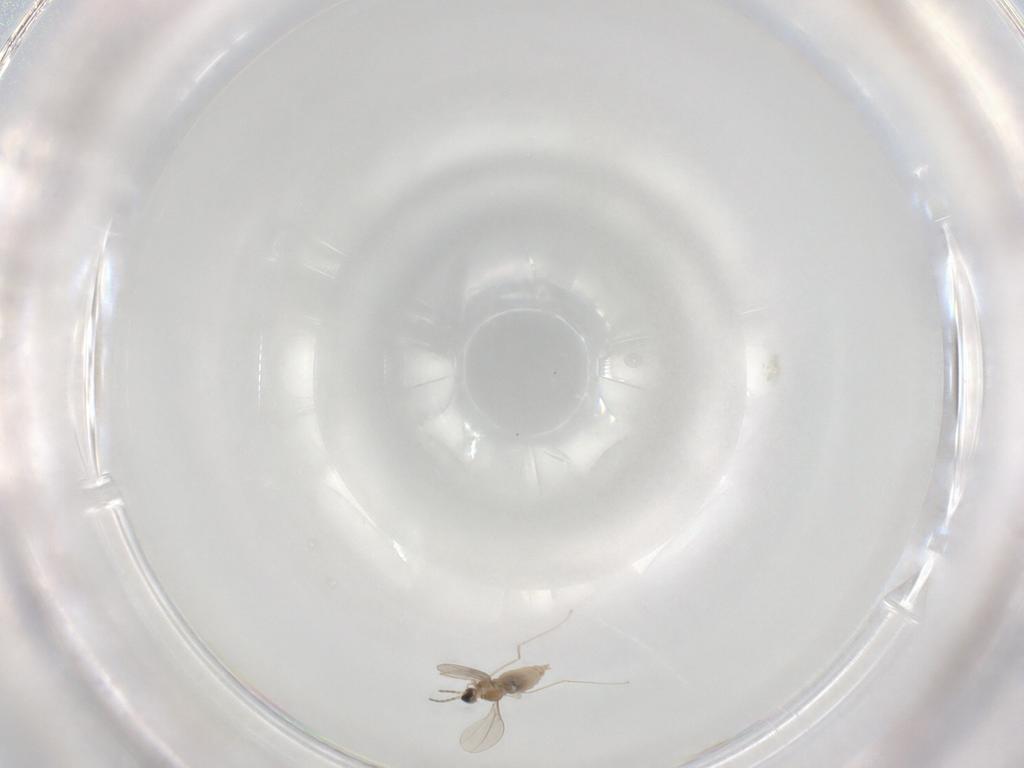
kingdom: Animalia
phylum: Arthropoda
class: Insecta
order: Diptera
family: Cecidomyiidae
